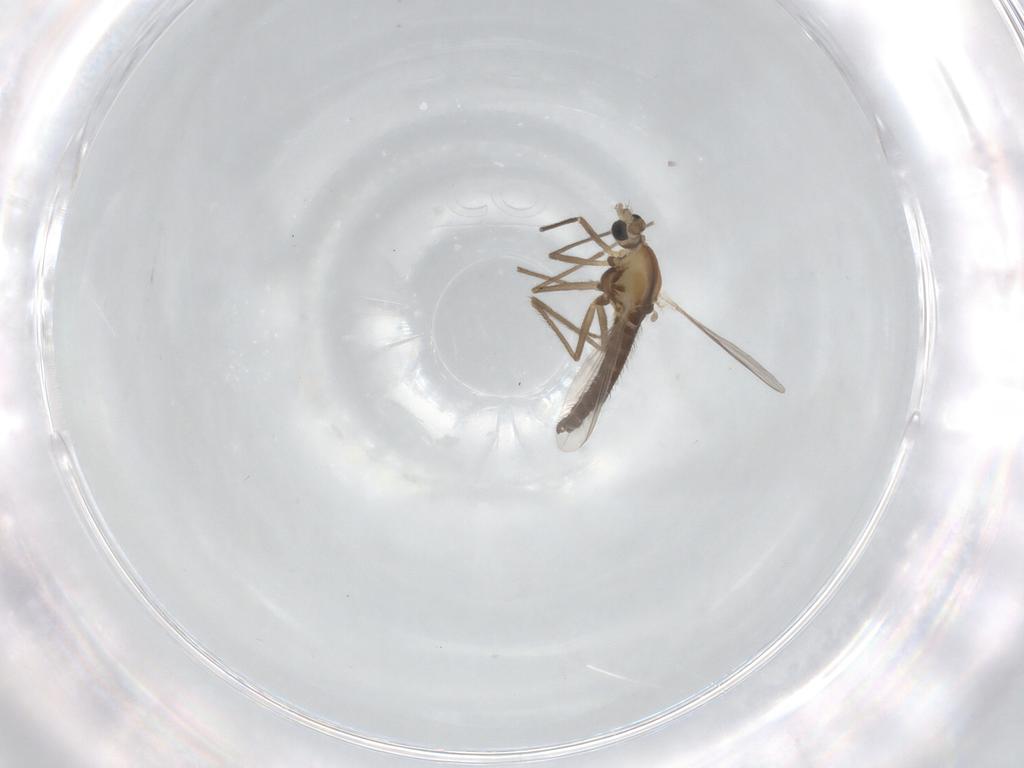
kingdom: Animalia
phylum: Arthropoda
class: Insecta
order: Diptera
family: Chironomidae
